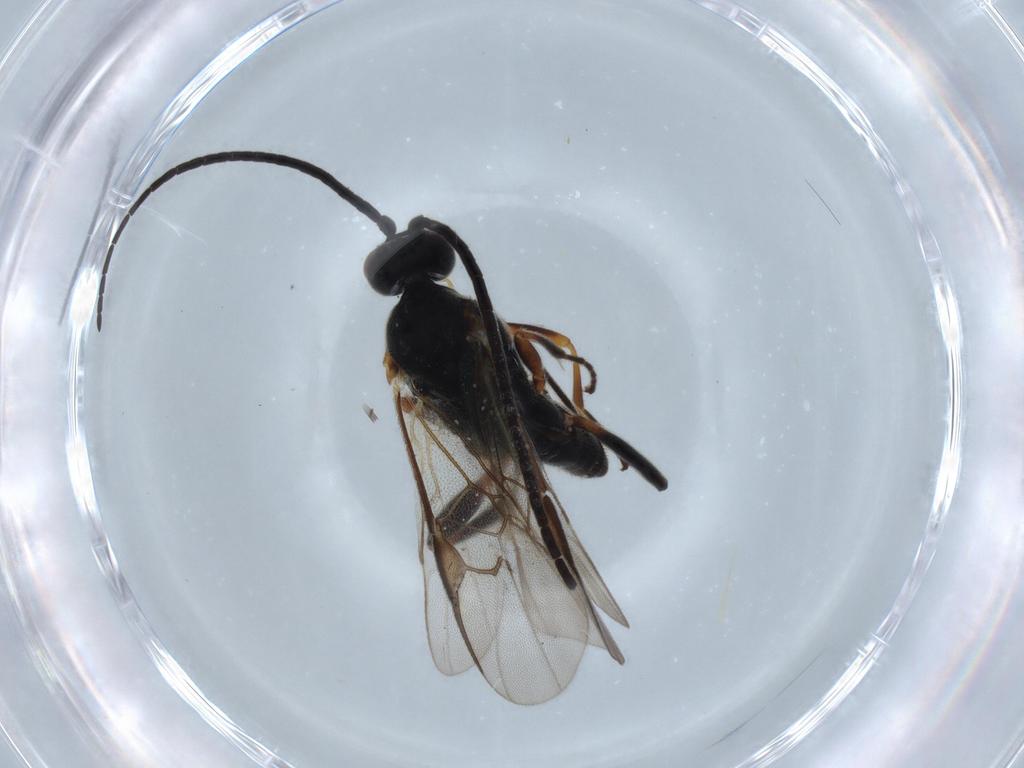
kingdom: Animalia
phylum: Arthropoda
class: Insecta
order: Hymenoptera
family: Braconidae
